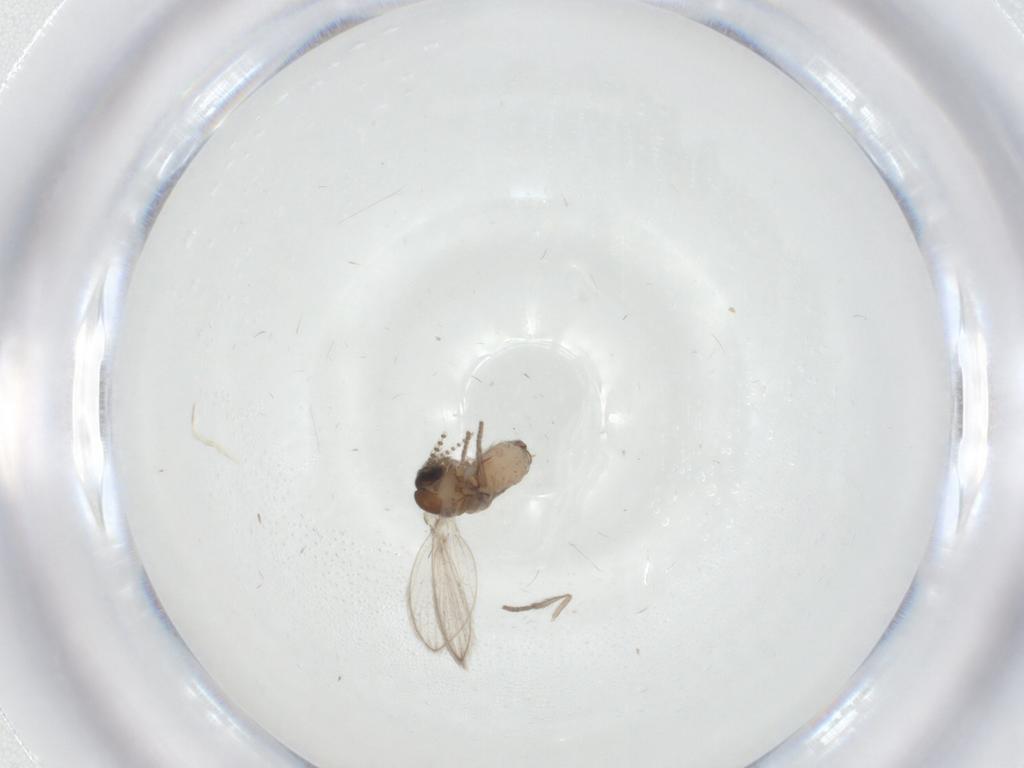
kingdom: Animalia
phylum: Arthropoda
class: Insecta
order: Diptera
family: Psychodidae
